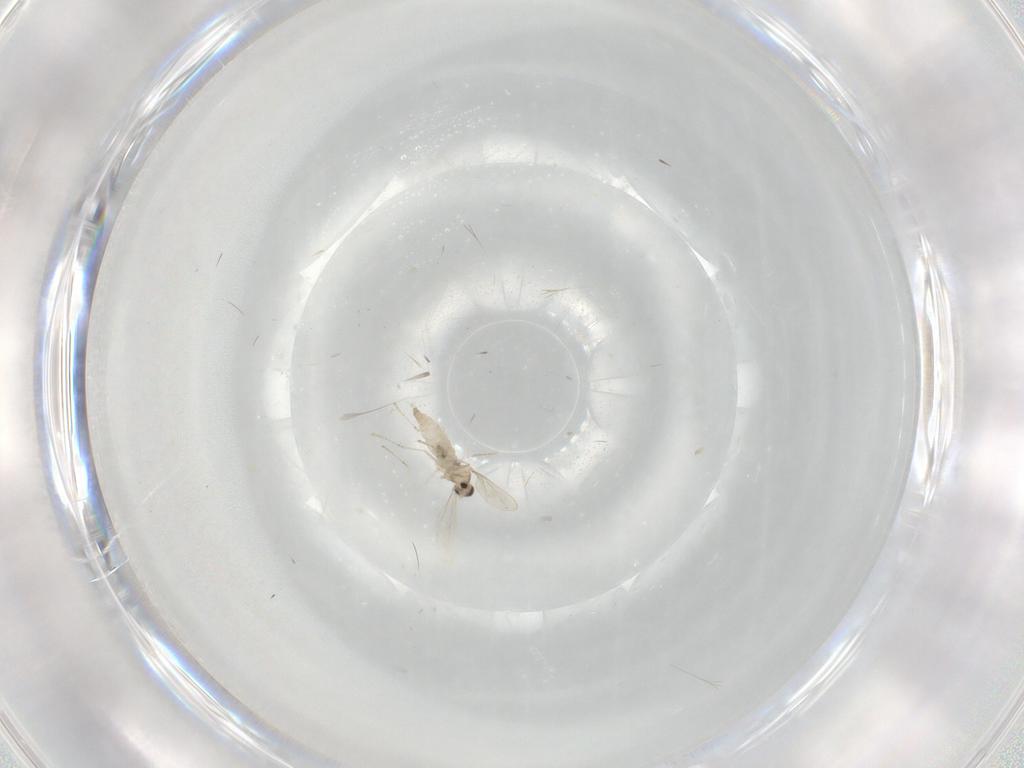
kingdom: Animalia
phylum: Arthropoda
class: Insecta
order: Diptera
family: Cecidomyiidae
